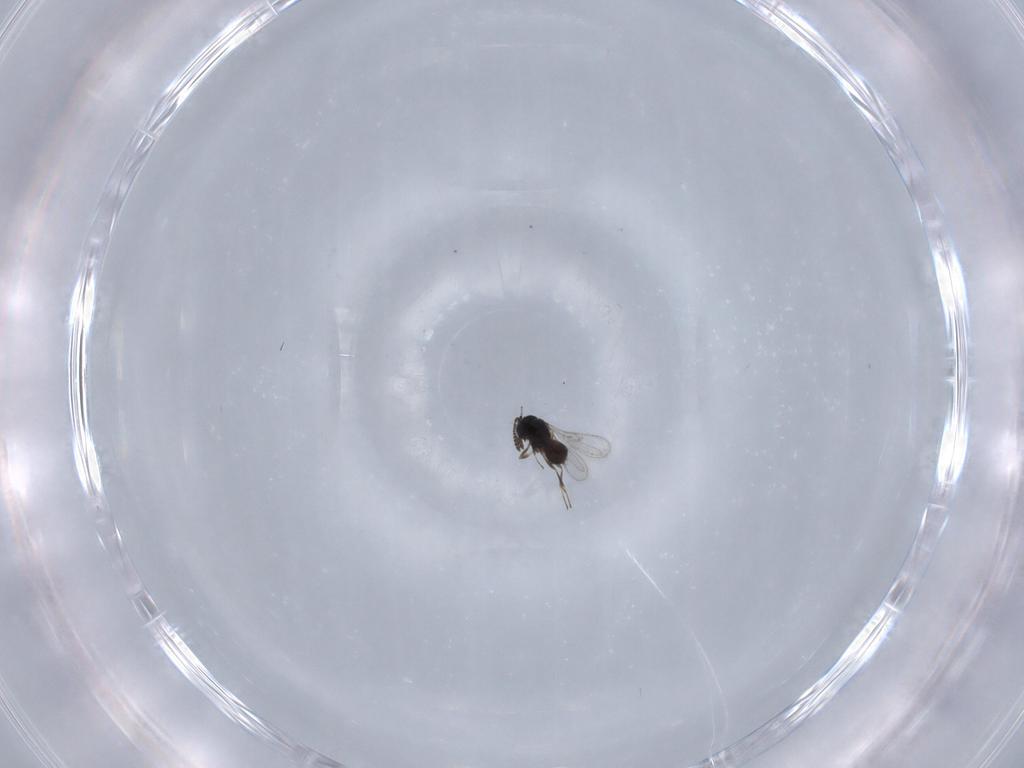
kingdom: Animalia
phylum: Arthropoda
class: Insecta
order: Hymenoptera
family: Scelionidae
